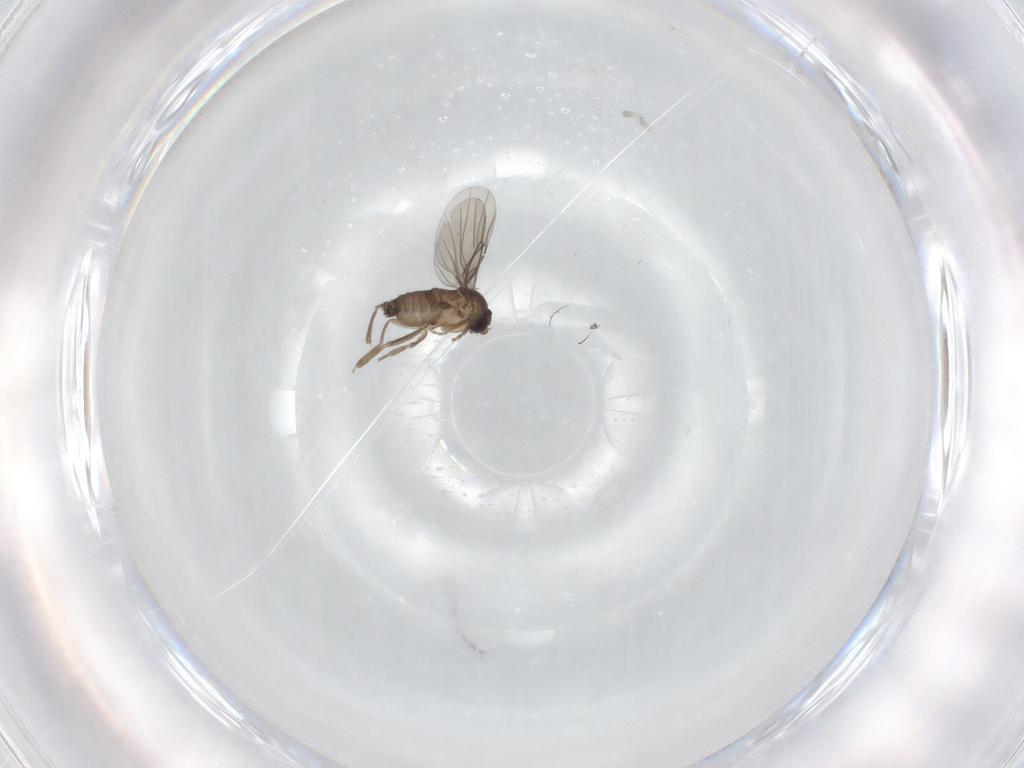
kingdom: Animalia
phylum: Arthropoda
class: Insecta
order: Diptera
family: Phoridae
